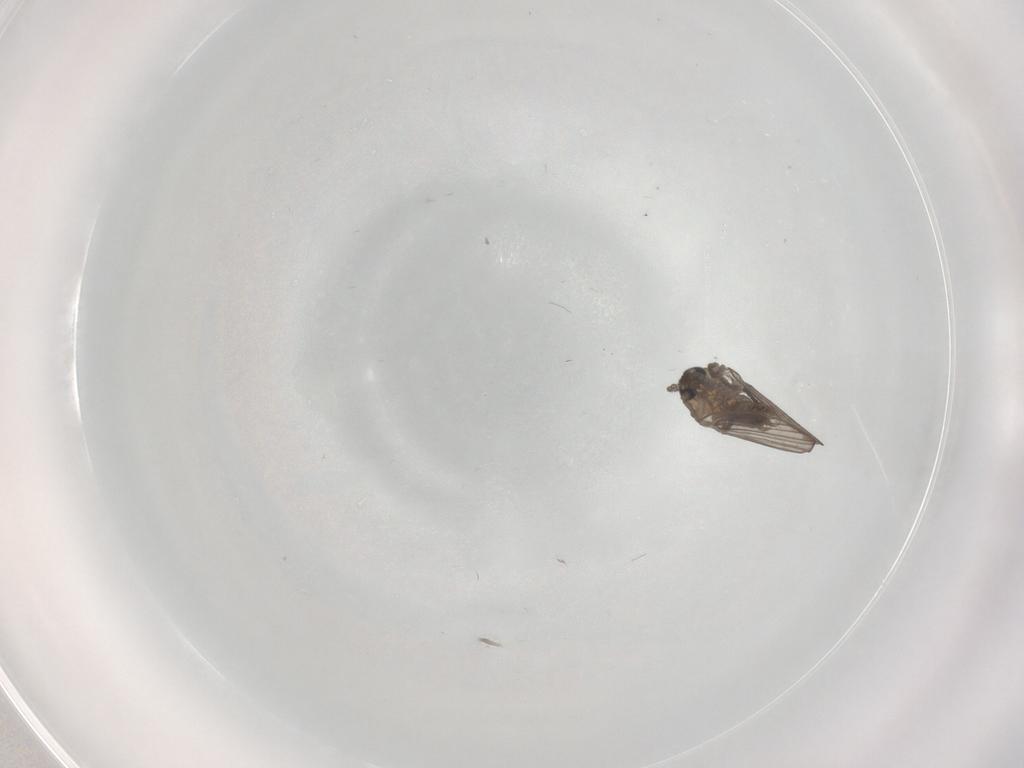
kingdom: Animalia
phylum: Arthropoda
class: Insecta
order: Diptera
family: Psychodidae
